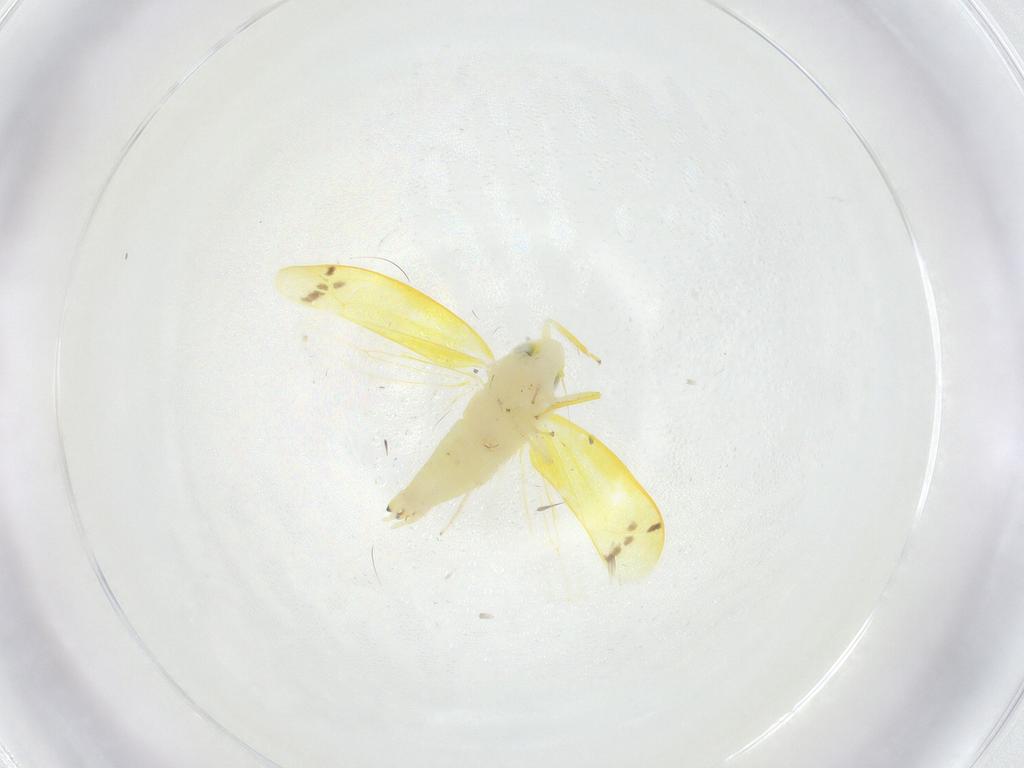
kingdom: Animalia
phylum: Arthropoda
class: Insecta
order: Hemiptera
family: Cicadellidae
